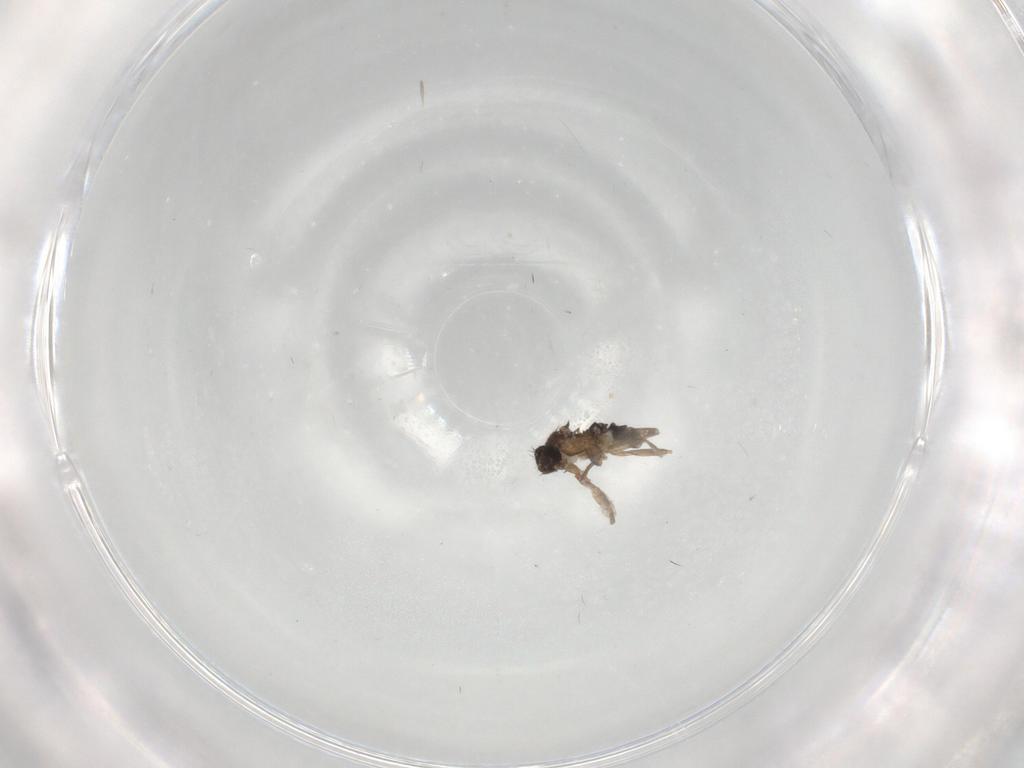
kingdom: Animalia
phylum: Arthropoda
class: Insecta
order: Diptera
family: Phoridae
